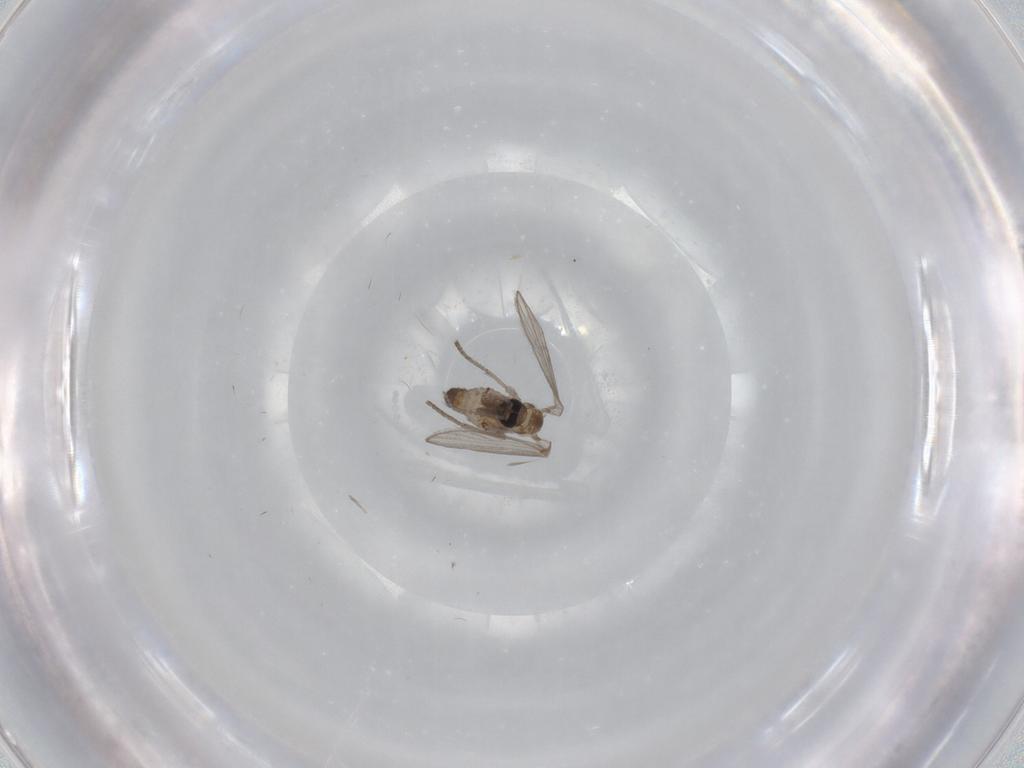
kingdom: Animalia
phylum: Arthropoda
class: Insecta
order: Diptera
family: Psychodidae
